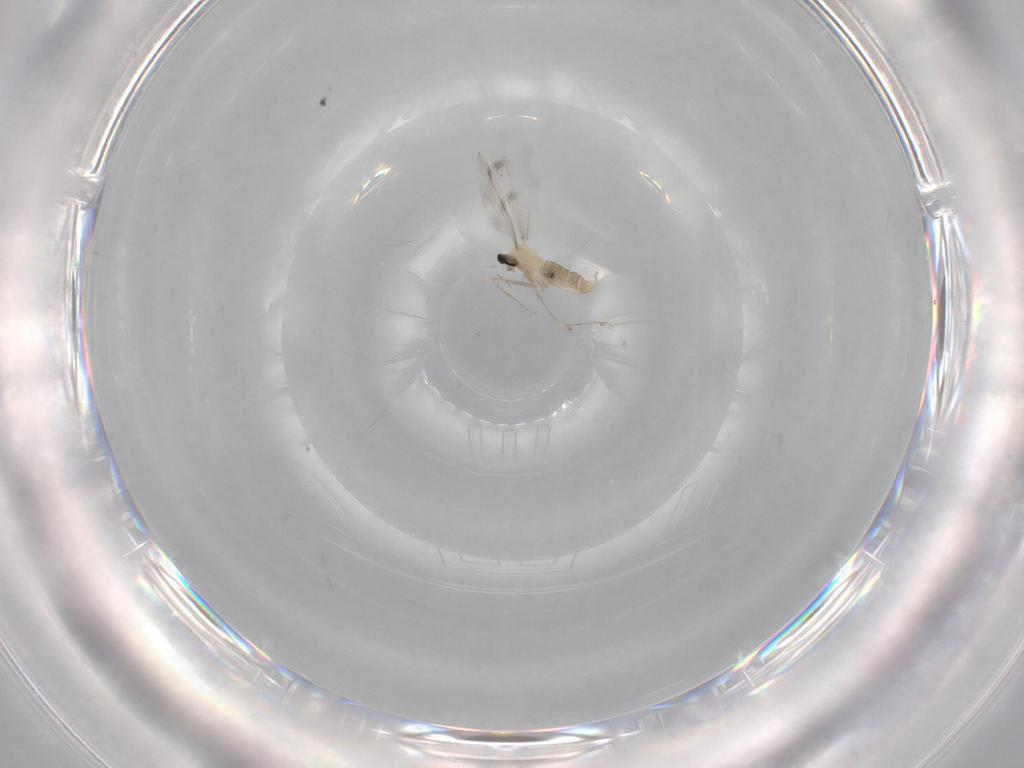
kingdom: Animalia
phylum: Arthropoda
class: Insecta
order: Diptera
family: Cecidomyiidae
